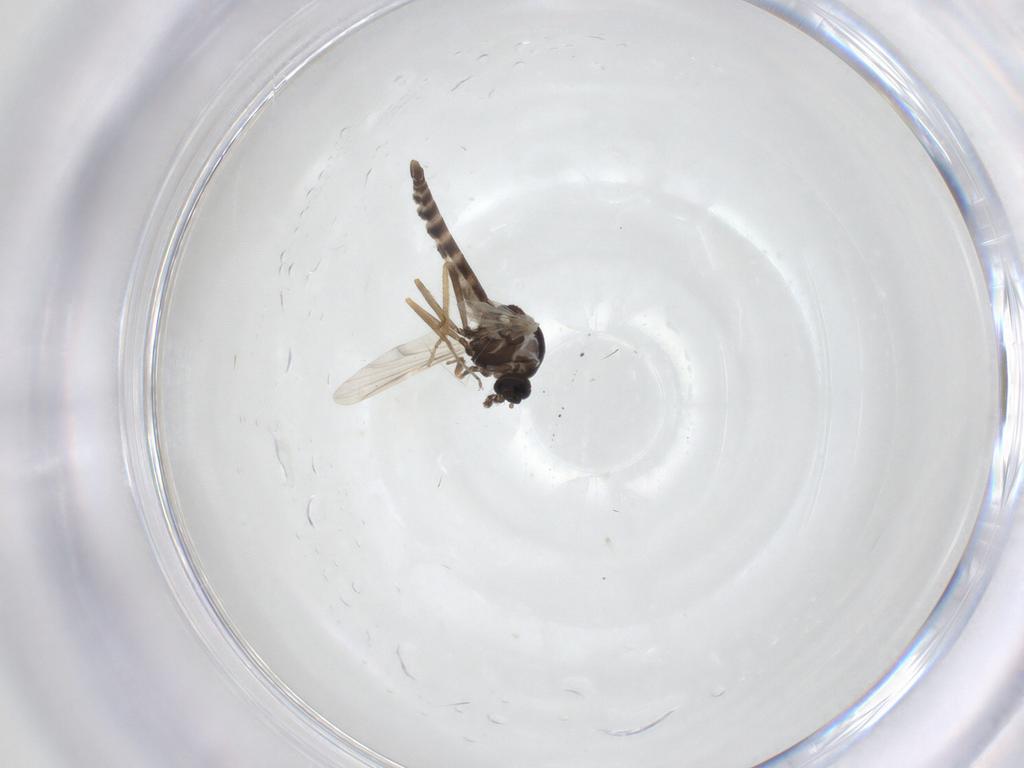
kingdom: Animalia
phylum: Arthropoda
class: Insecta
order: Diptera
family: Ceratopogonidae
